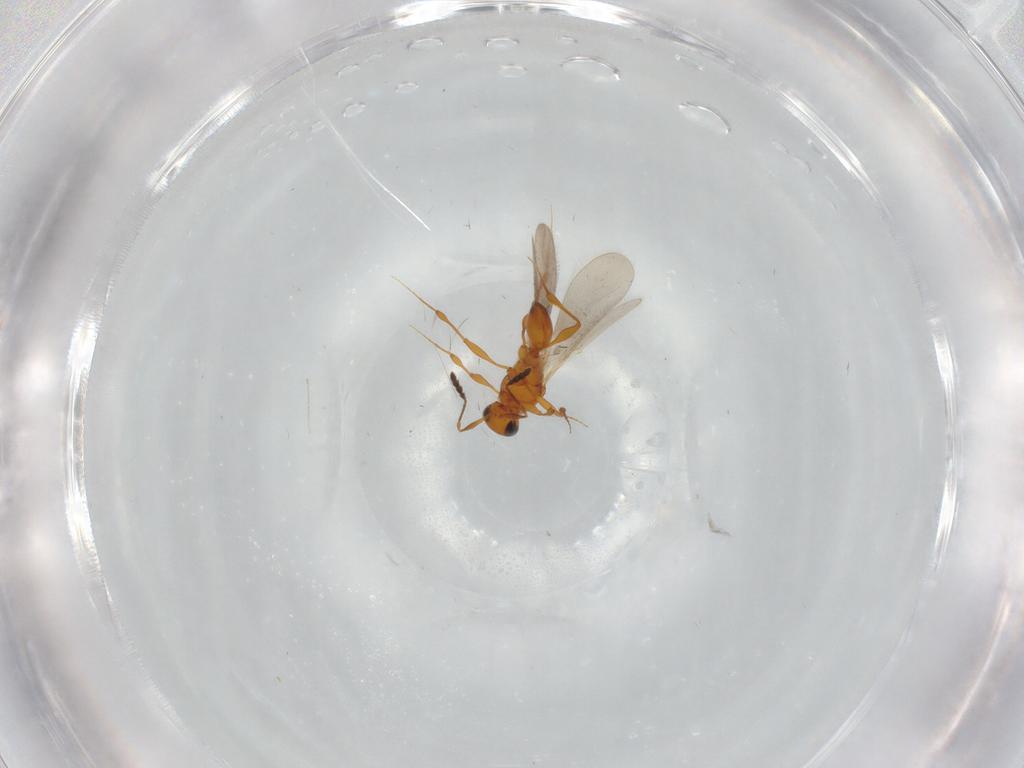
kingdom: Animalia
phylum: Arthropoda
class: Insecta
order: Hymenoptera
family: Platygastridae
